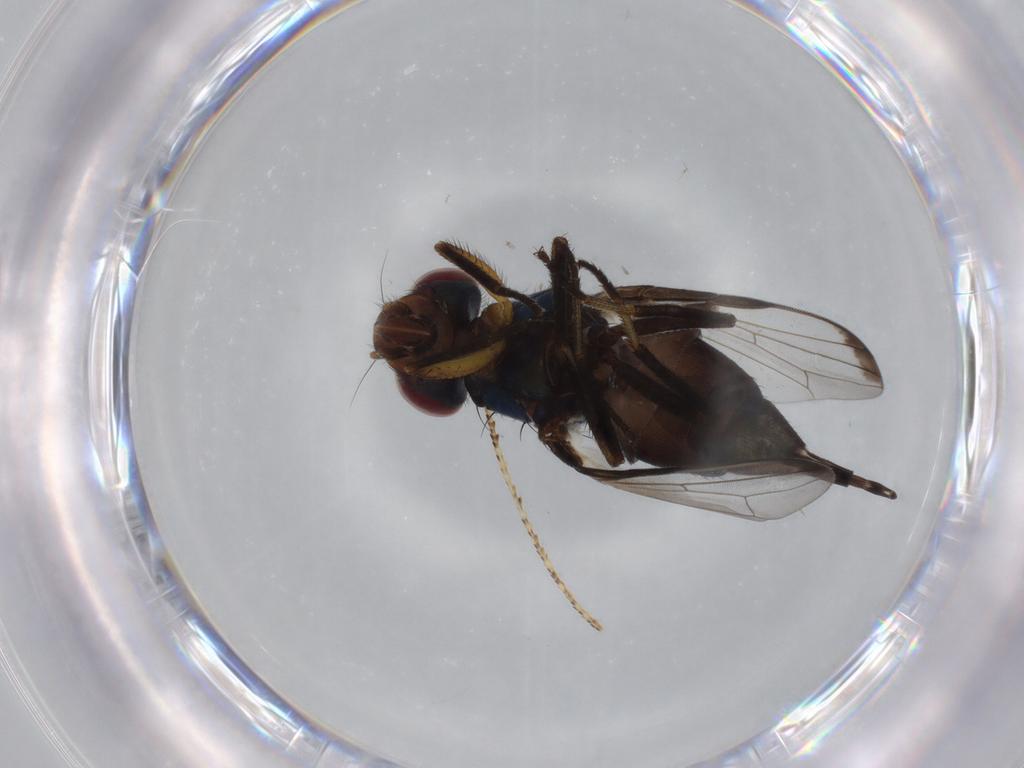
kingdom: Animalia
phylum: Arthropoda
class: Insecta
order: Diptera
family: Ulidiidae
